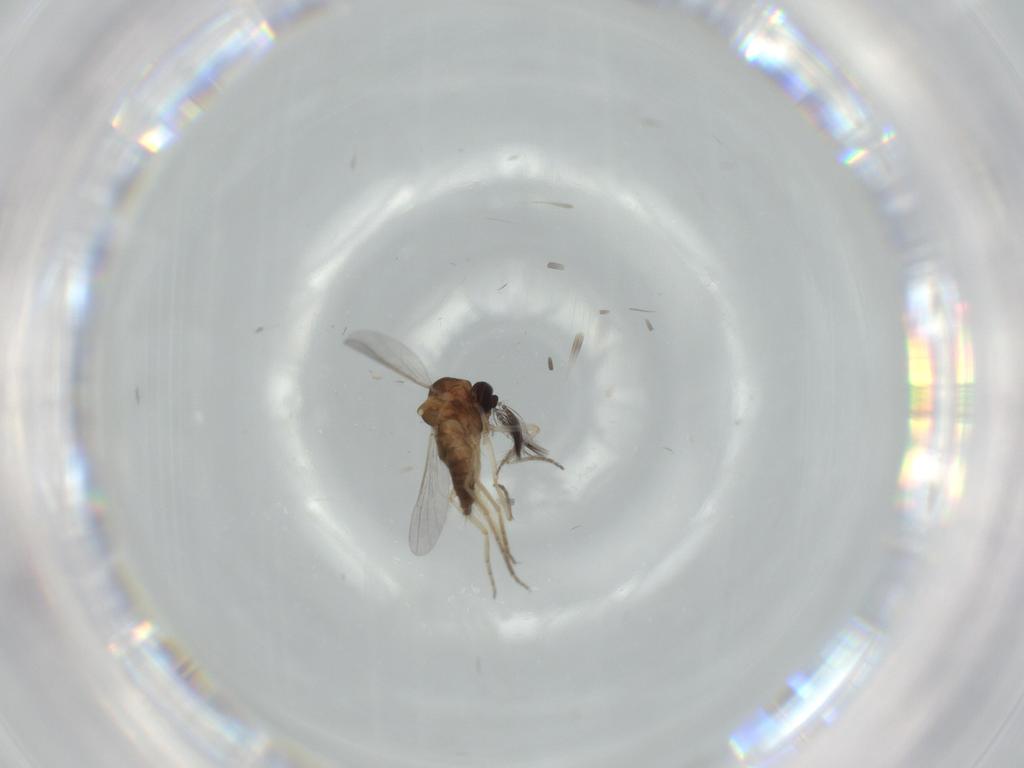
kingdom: Animalia
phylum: Arthropoda
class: Insecta
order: Diptera
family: Ceratopogonidae
